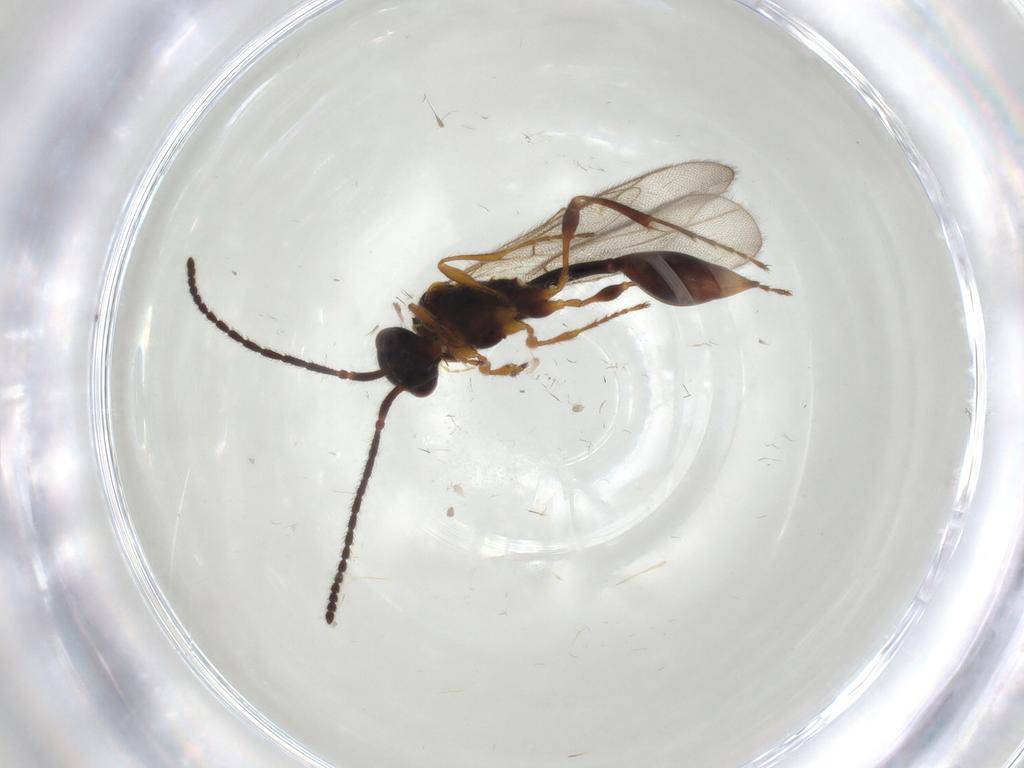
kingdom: Animalia
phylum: Arthropoda
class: Insecta
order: Hymenoptera
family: Diapriidae
